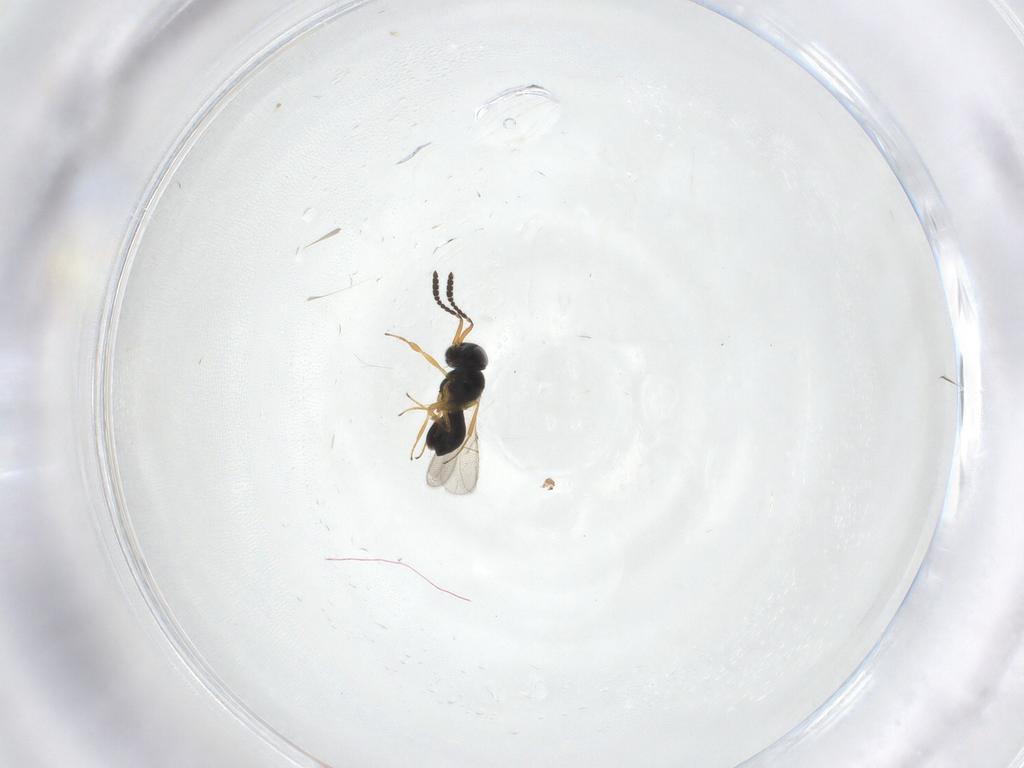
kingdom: Animalia
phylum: Arthropoda
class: Insecta
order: Hymenoptera
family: Scelionidae
